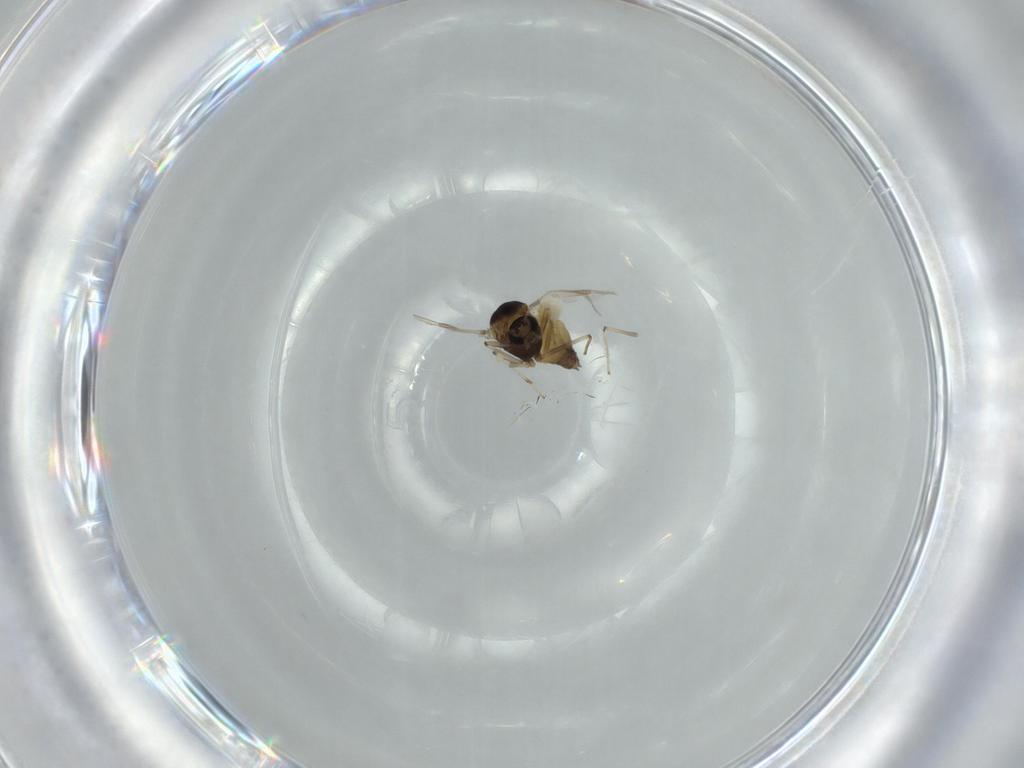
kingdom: Animalia
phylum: Arthropoda
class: Insecta
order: Diptera
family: Chironomidae
